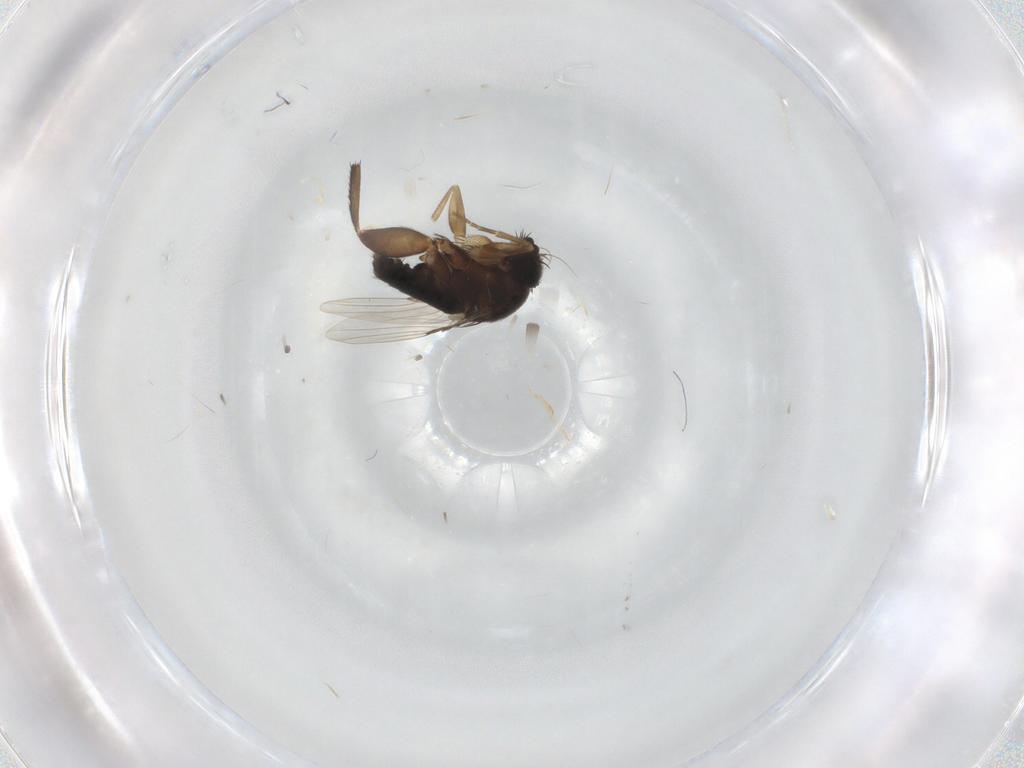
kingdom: Animalia
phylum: Arthropoda
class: Insecta
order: Diptera
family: Phoridae
